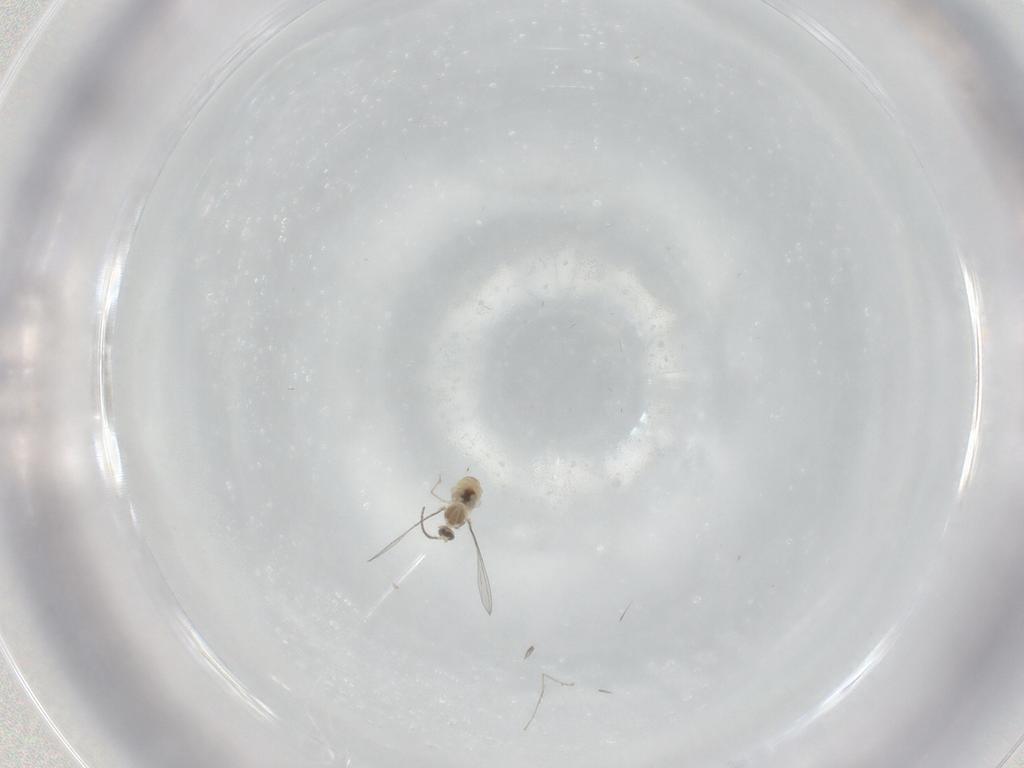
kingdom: Animalia
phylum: Arthropoda
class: Insecta
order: Diptera
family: Cecidomyiidae
